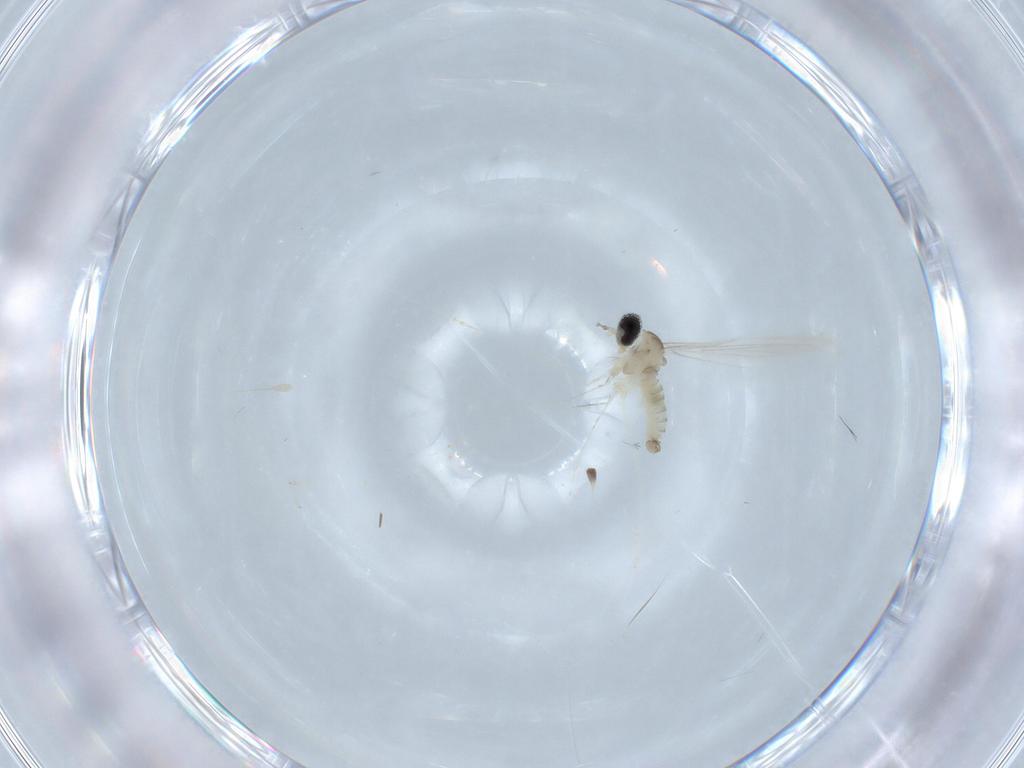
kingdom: Animalia
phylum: Arthropoda
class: Insecta
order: Diptera
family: Cecidomyiidae
